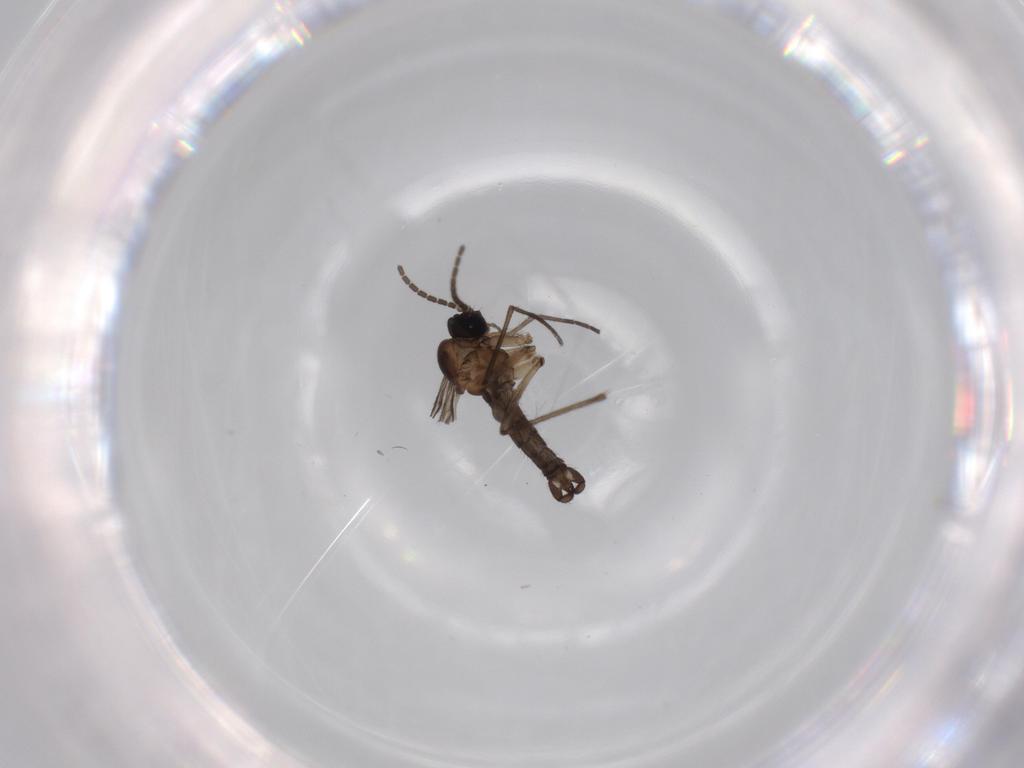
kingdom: Animalia
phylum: Arthropoda
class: Insecta
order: Diptera
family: Sciaridae
